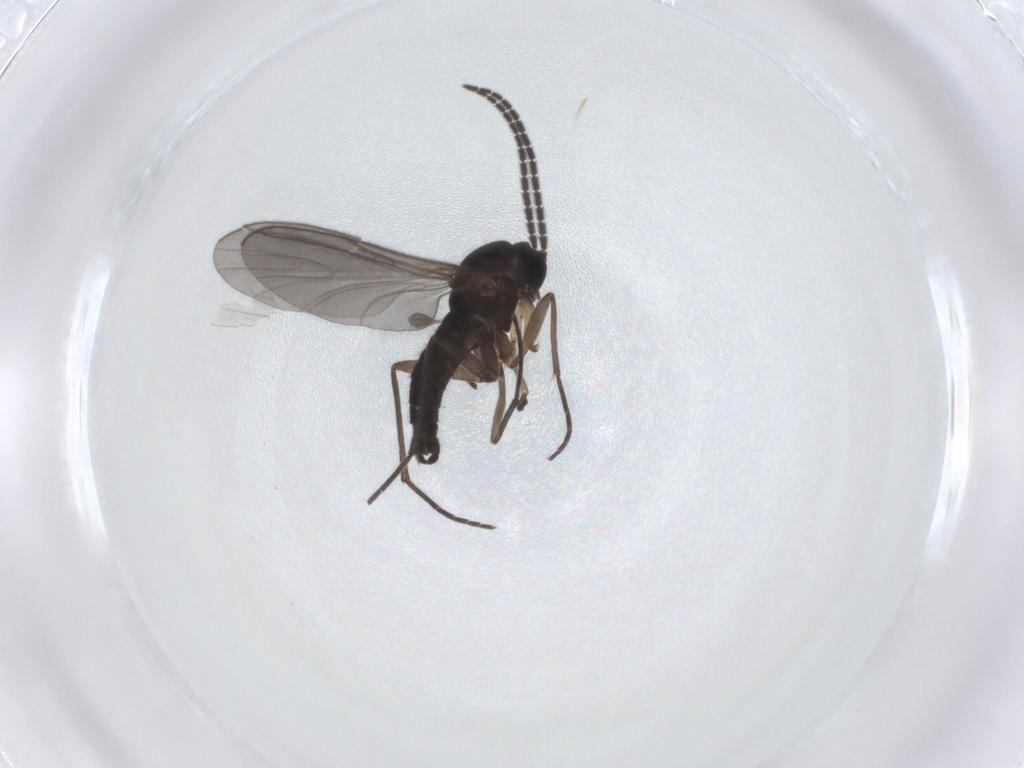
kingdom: Animalia
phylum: Arthropoda
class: Insecta
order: Diptera
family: Sciaridae
